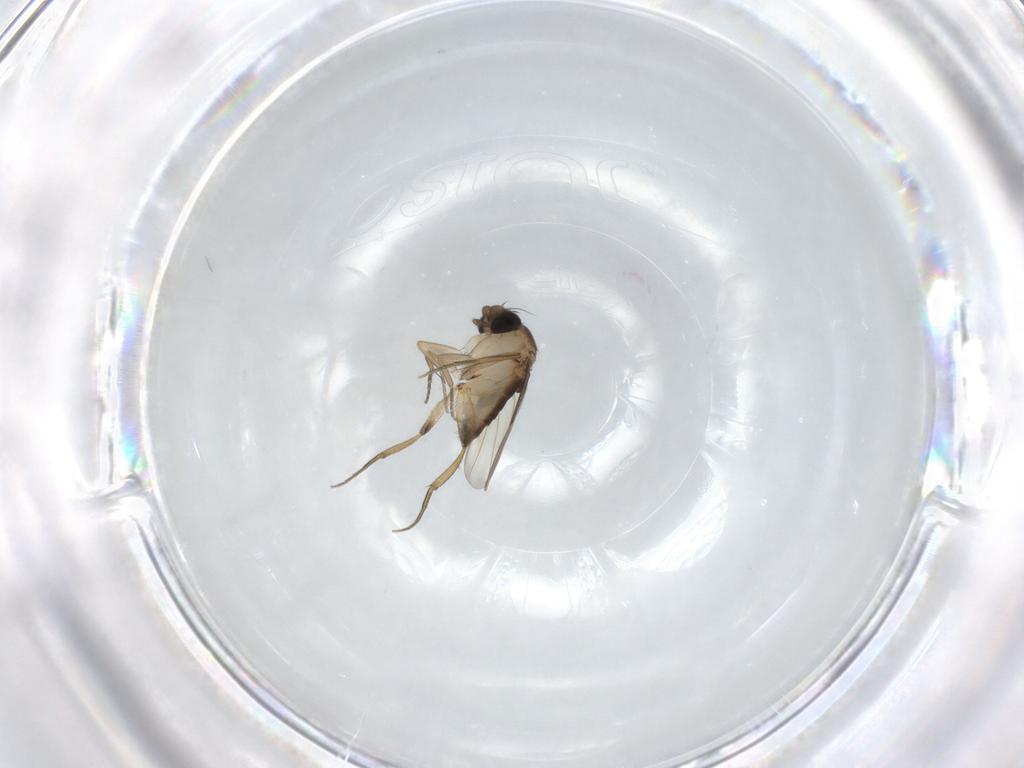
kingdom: Animalia
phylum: Arthropoda
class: Insecta
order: Diptera
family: Phoridae
